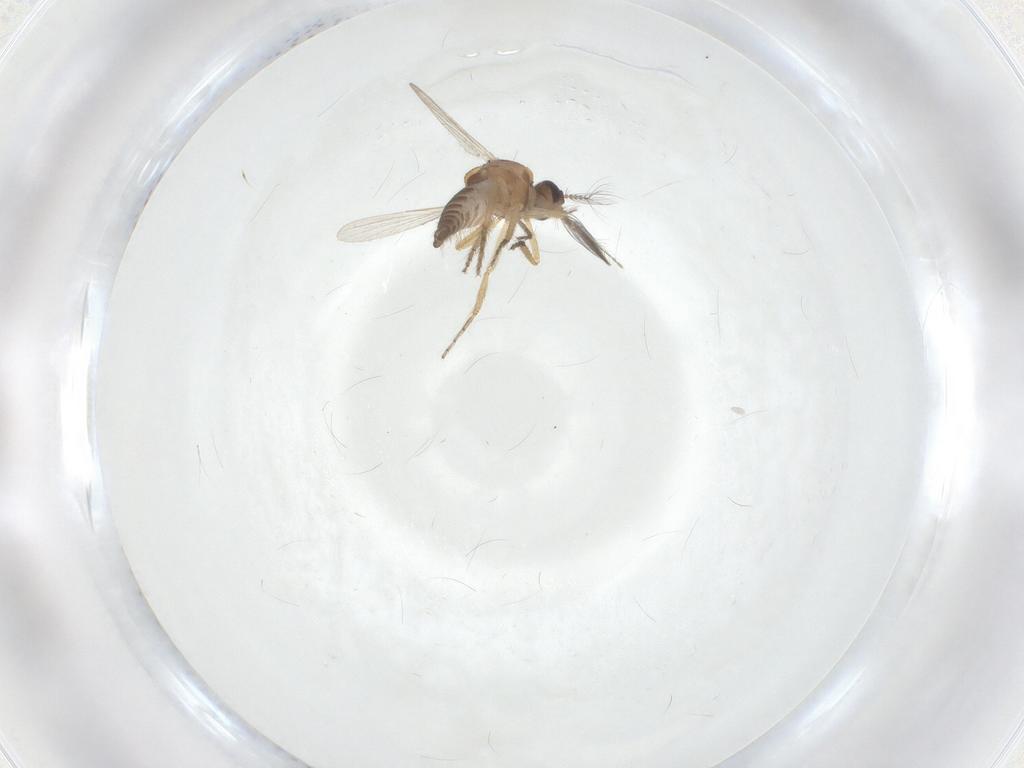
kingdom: Animalia
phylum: Arthropoda
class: Insecta
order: Diptera
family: Ceratopogonidae
